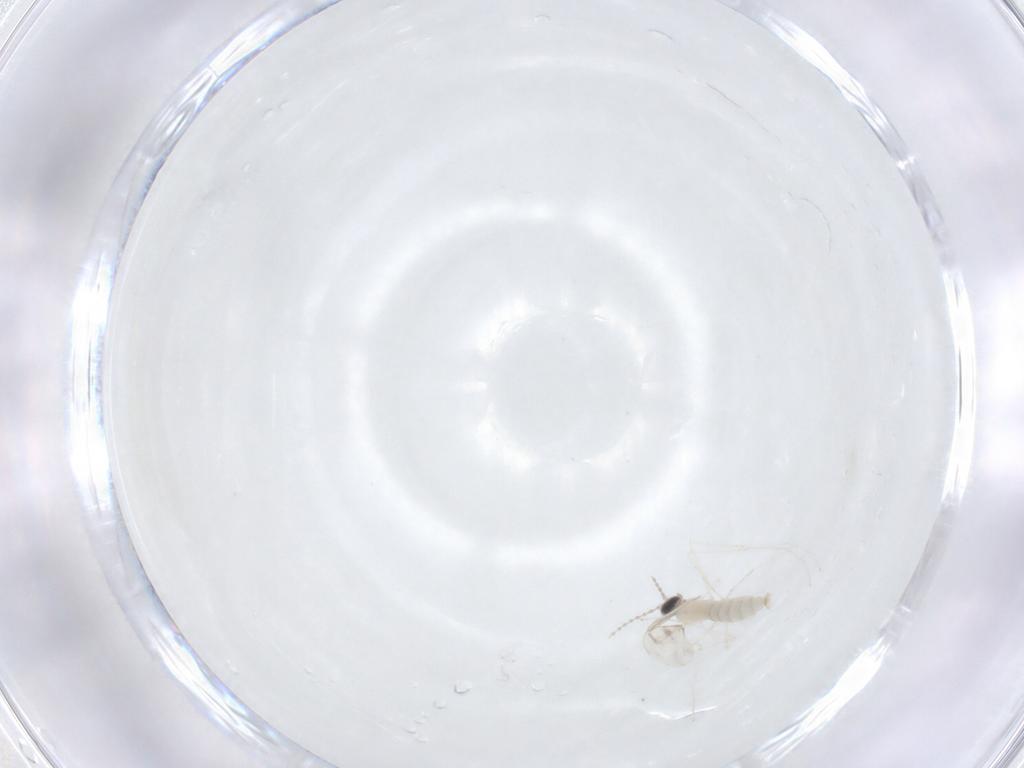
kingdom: Animalia
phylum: Arthropoda
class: Insecta
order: Diptera
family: Cecidomyiidae
